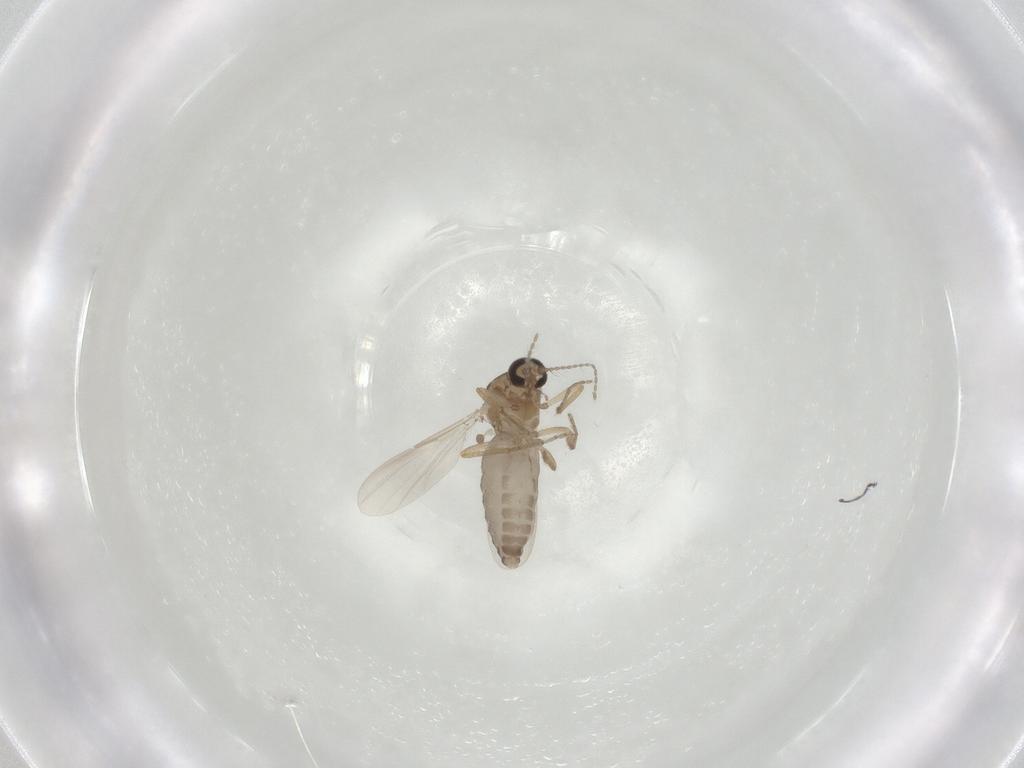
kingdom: Animalia
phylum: Arthropoda
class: Insecta
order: Diptera
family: Ceratopogonidae
